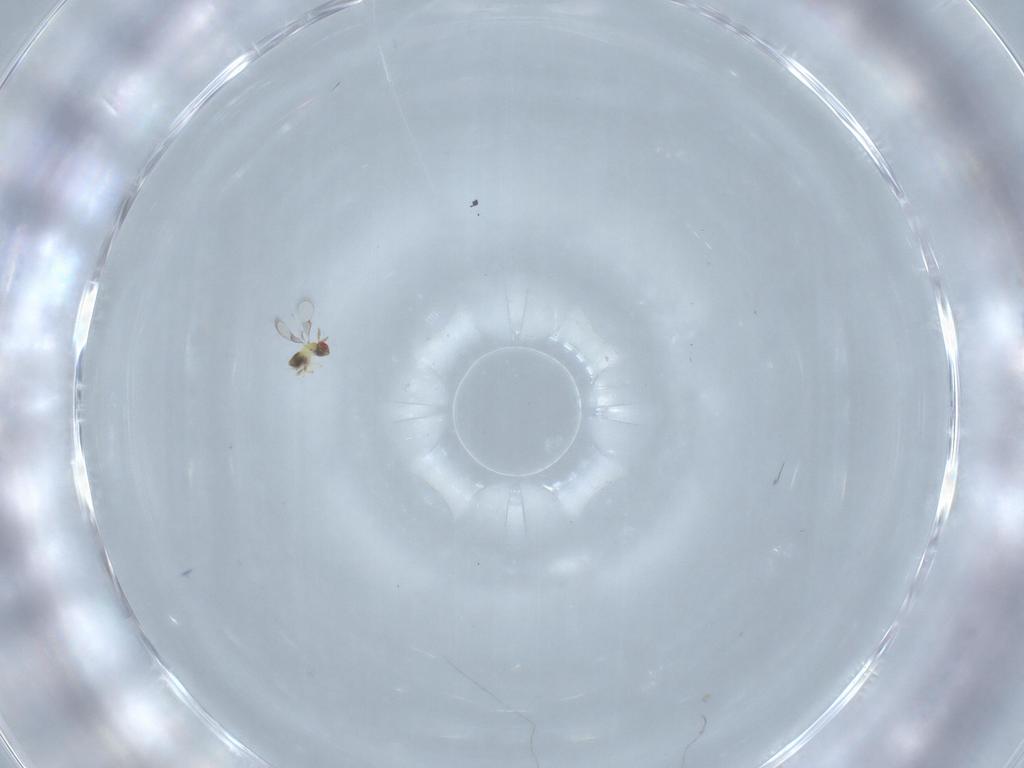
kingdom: Animalia
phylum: Arthropoda
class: Insecta
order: Hymenoptera
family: Trichogrammatidae
